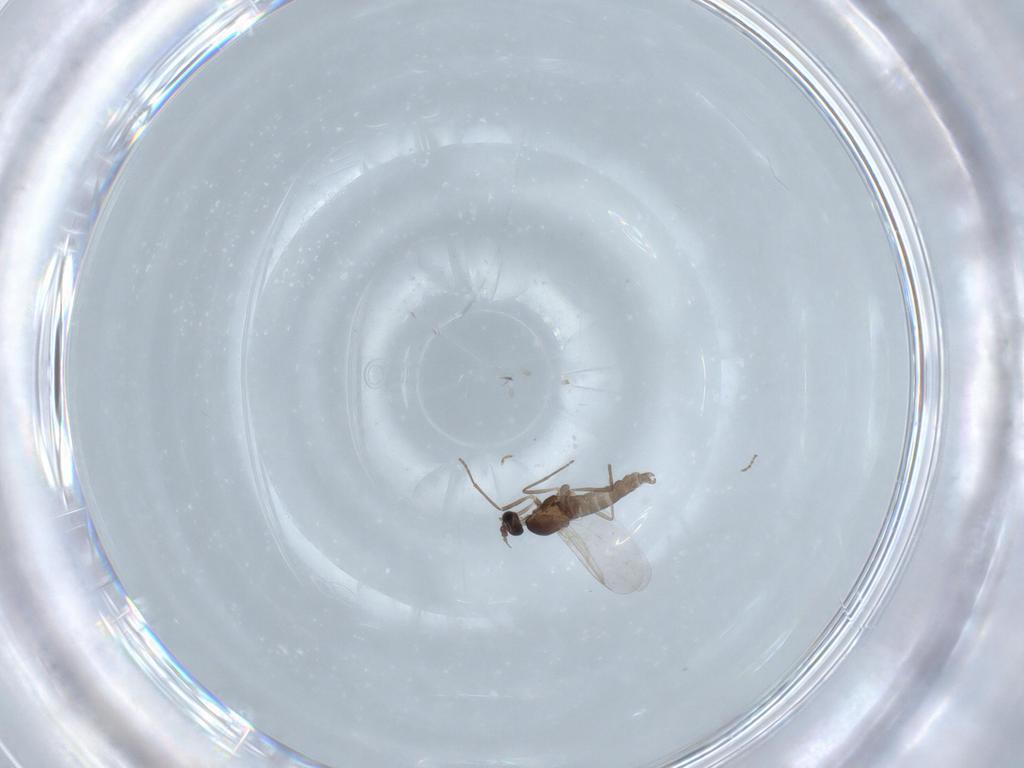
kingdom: Animalia
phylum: Arthropoda
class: Insecta
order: Diptera
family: Cecidomyiidae
